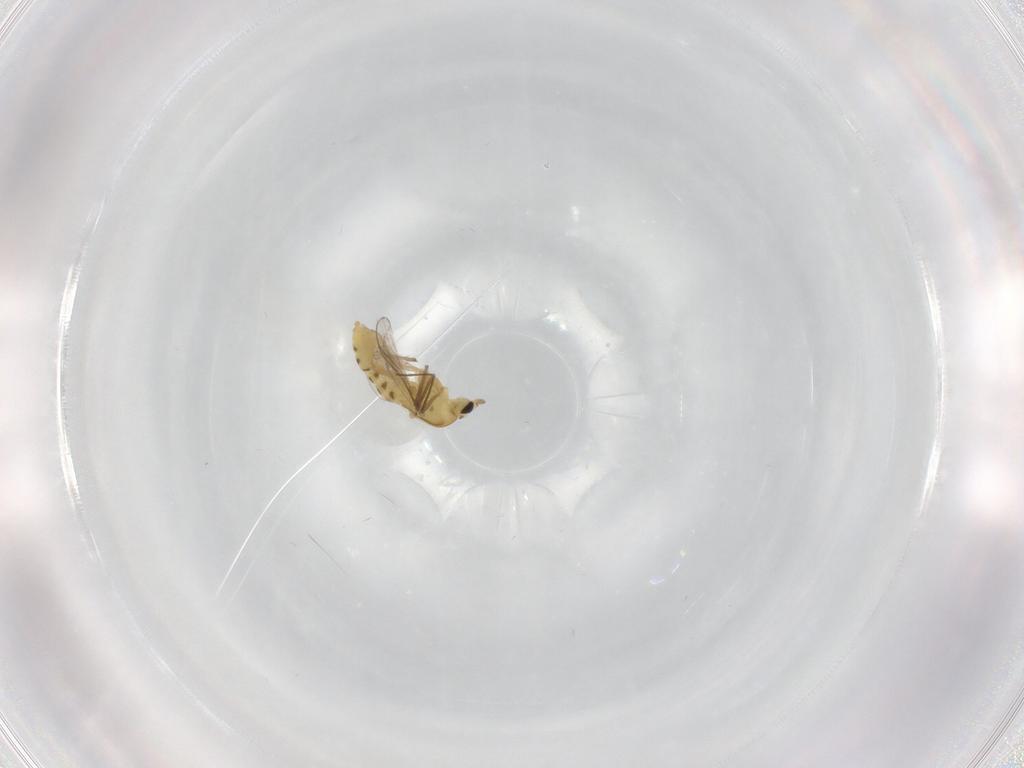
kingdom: Animalia
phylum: Arthropoda
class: Insecta
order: Diptera
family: Chironomidae
